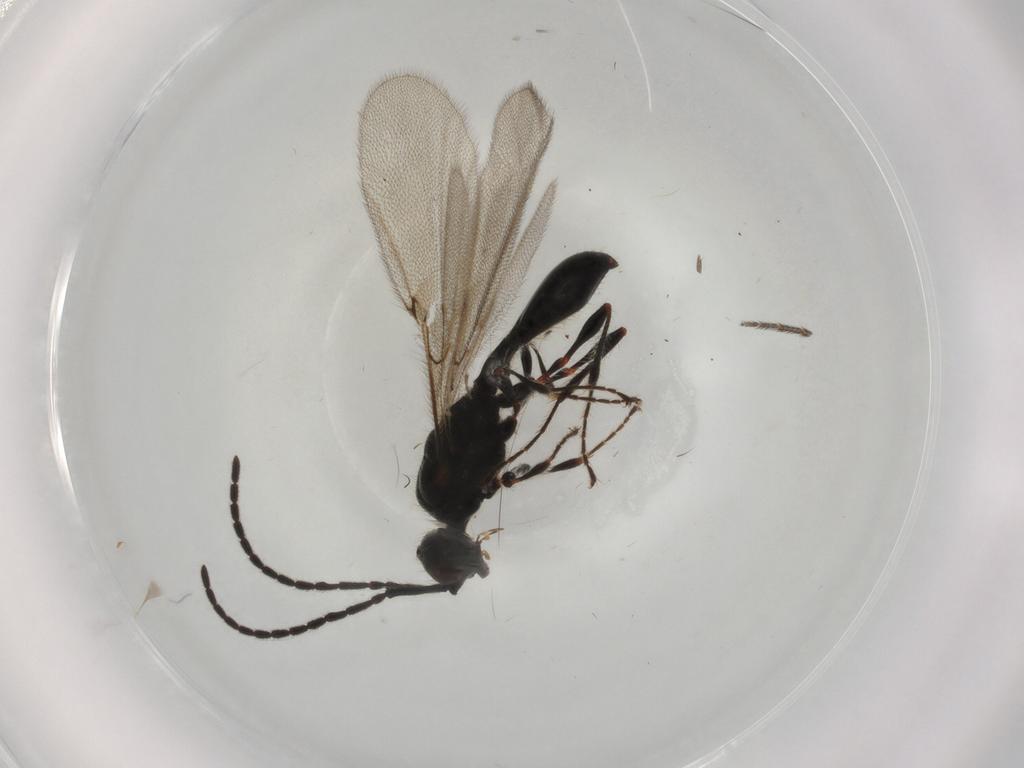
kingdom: Animalia
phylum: Arthropoda
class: Insecta
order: Hymenoptera
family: Diapriidae
